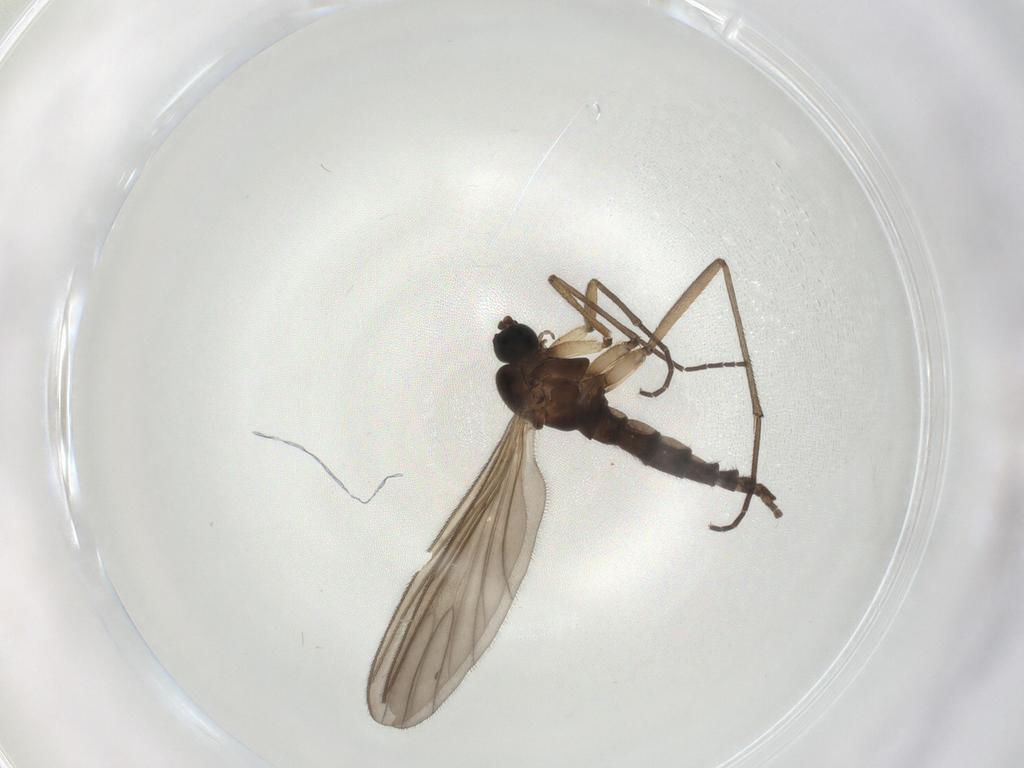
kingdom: Animalia
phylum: Arthropoda
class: Insecta
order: Diptera
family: Sciaridae
